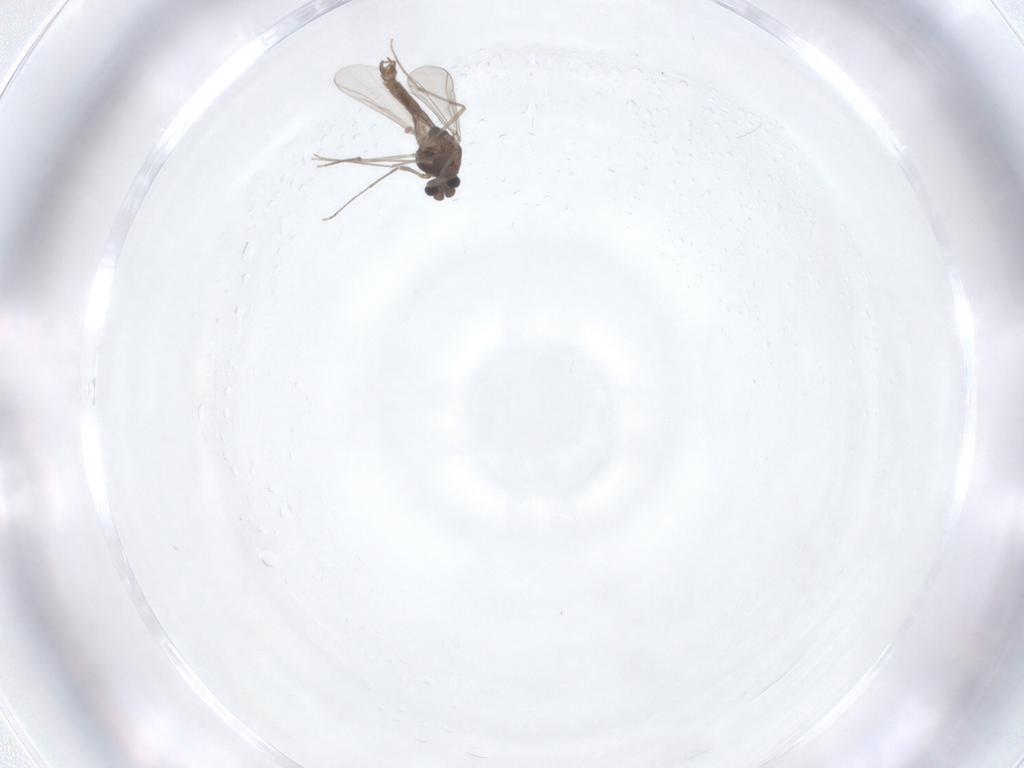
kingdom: Animalia
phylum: Arthropoda
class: Insecta
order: Diptera
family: Chironomidae
